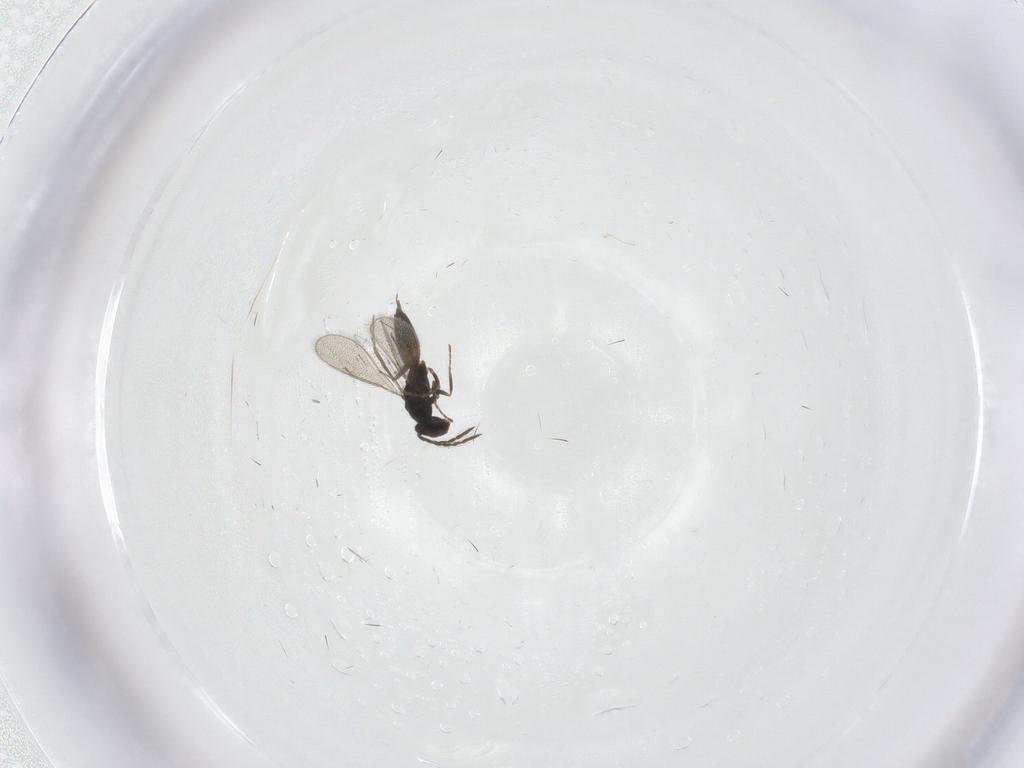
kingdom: Animalia
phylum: Arthropoda
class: Insecta
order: Hymenoptera
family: Eulophidae
